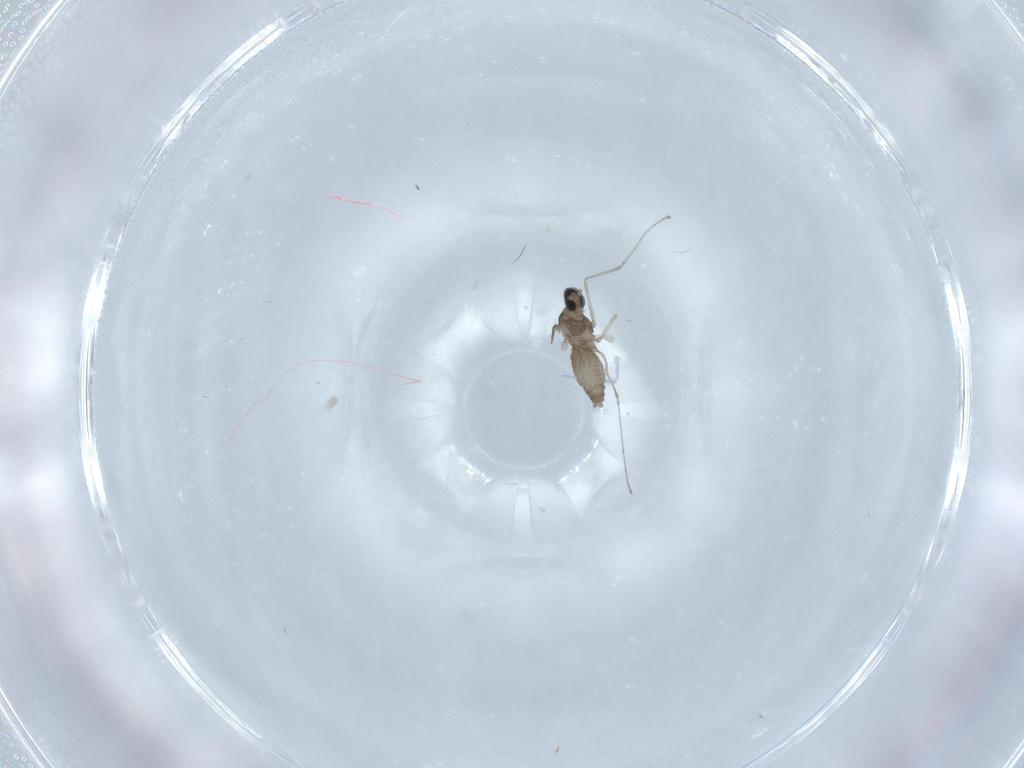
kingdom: Animalia
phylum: Arthropoda
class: Insecta
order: Diptera
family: Cecidomyiidae
